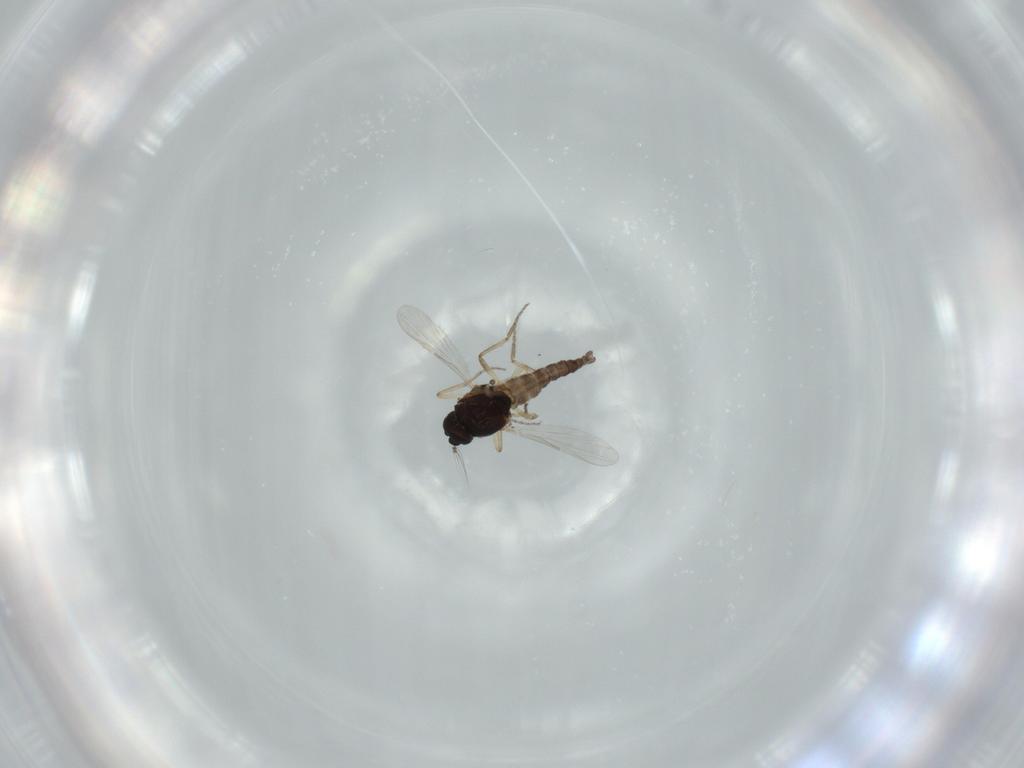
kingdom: Animalia
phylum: Arthropoda
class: Insecta
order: Diptera
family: Ceratopogonidae
